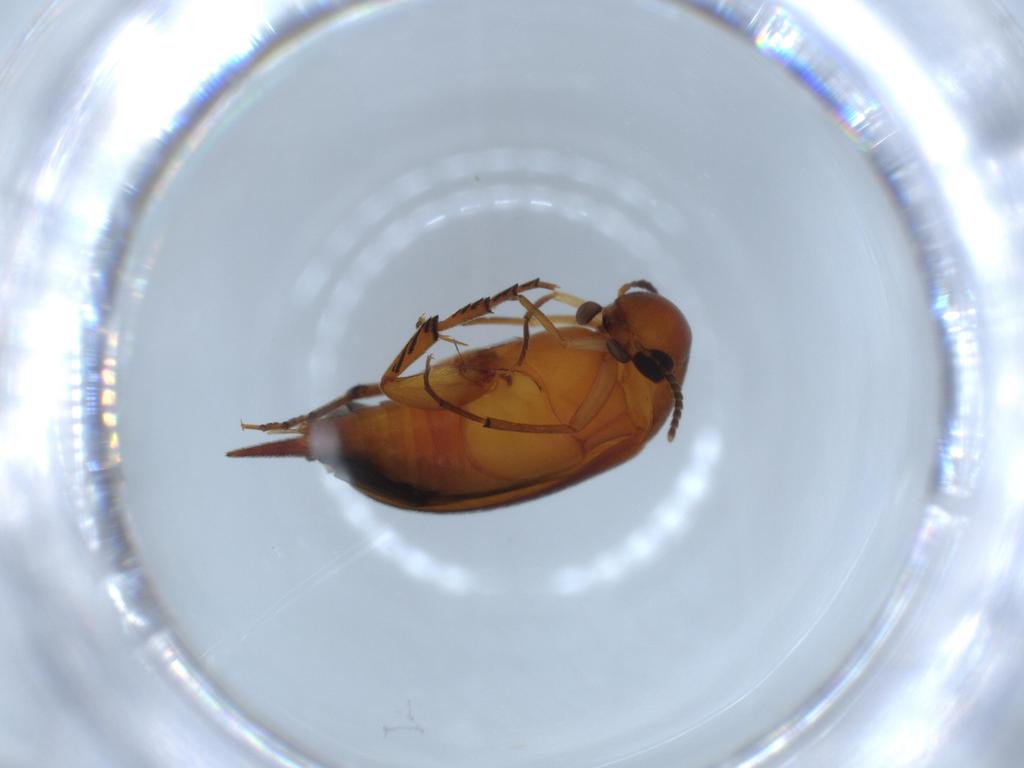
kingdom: Animalia
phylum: Arthropoda
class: Insecta
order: Coleoptera
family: Mordellidae
